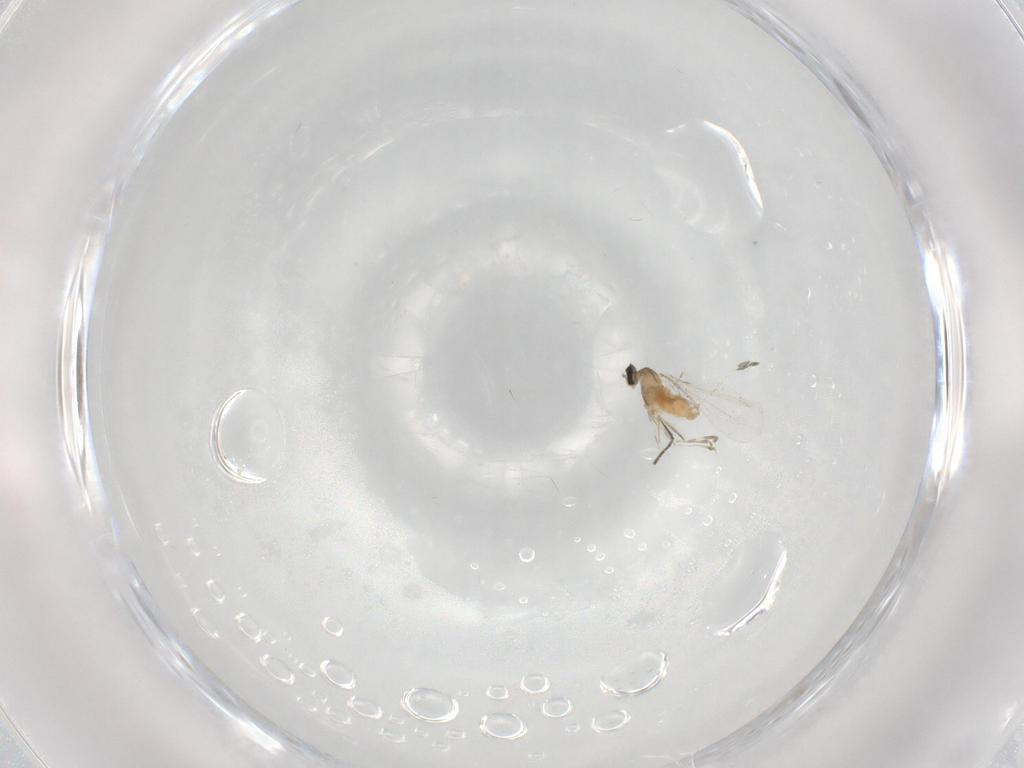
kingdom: Animalia
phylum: Arthropoda
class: Insecta
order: Diptera
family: Cecidomyiidae
